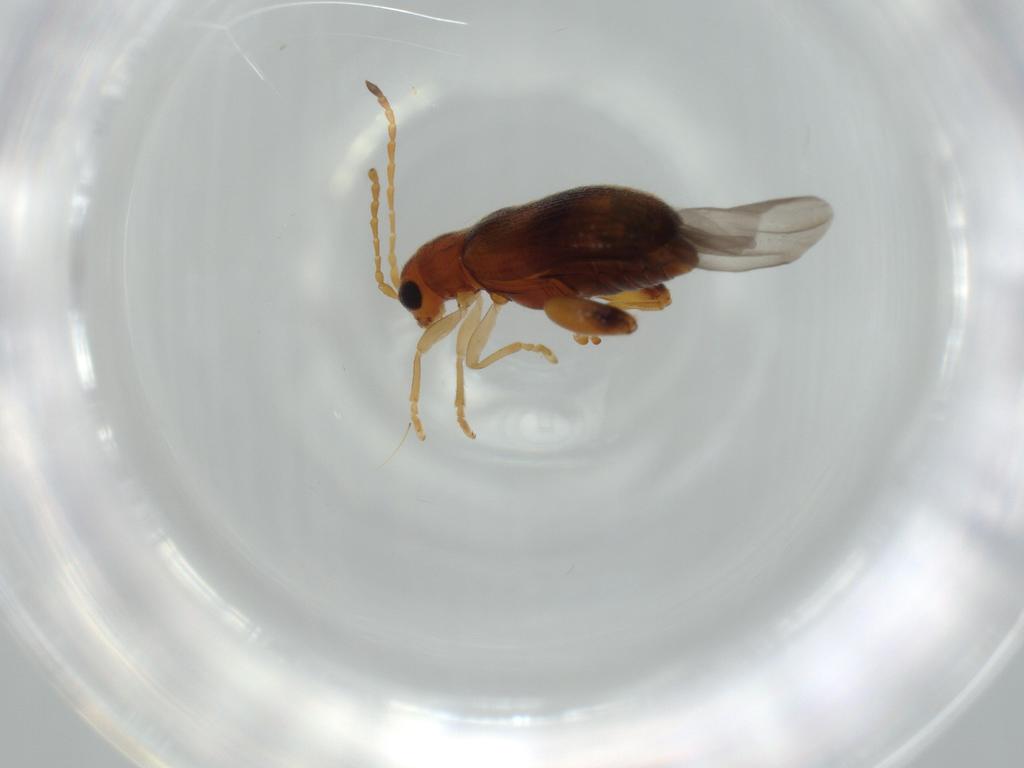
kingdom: Animalia
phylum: Arthropoda
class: Insecta
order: Coleoptera
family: Chrysomelidae
